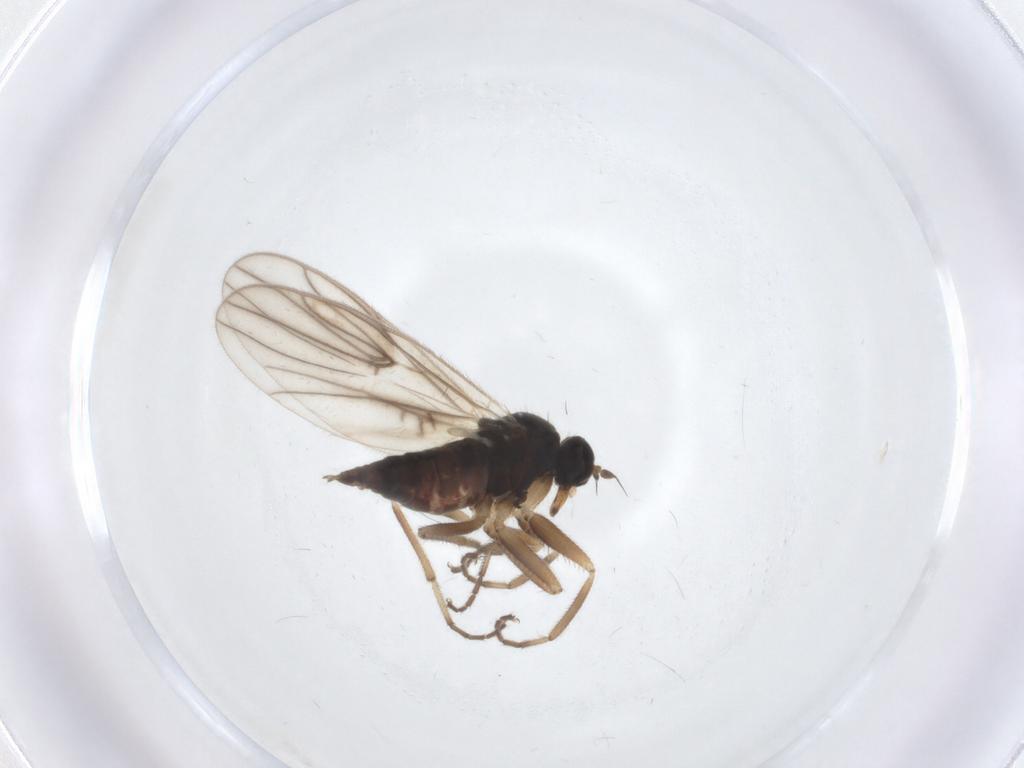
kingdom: Animalia
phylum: Arthropoda
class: Insecta
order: Diptera
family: Hybotidae
